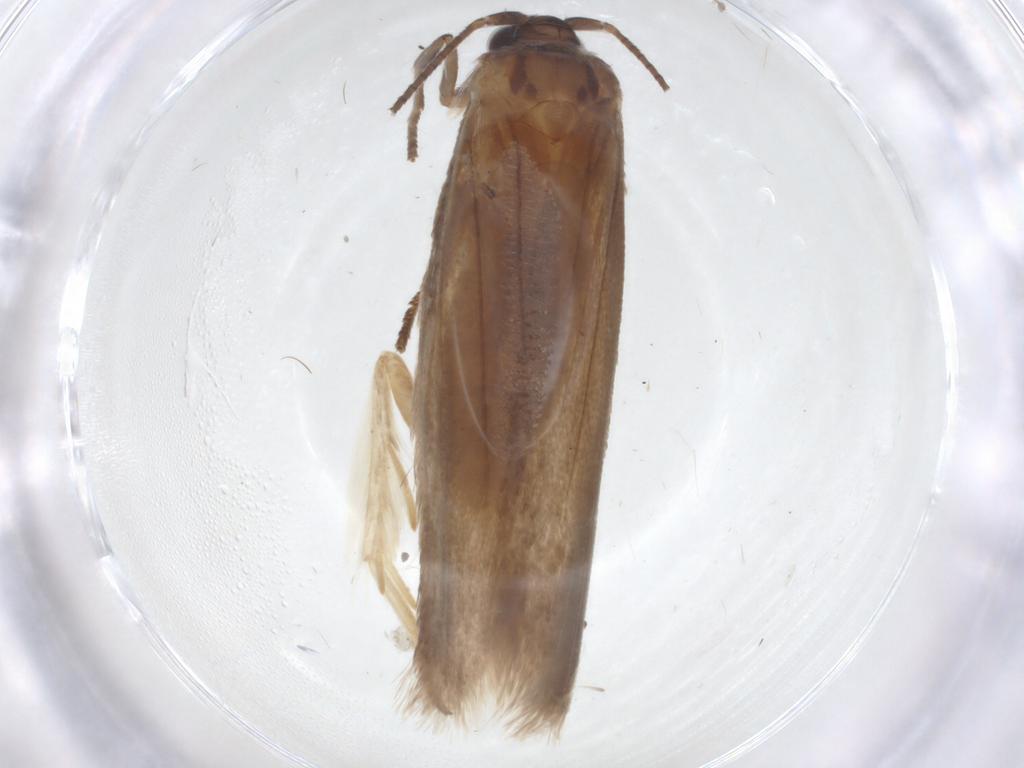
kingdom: Animalia
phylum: Arthropoda
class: Insecta
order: Lepidoptera
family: Roeslerstammiidae
